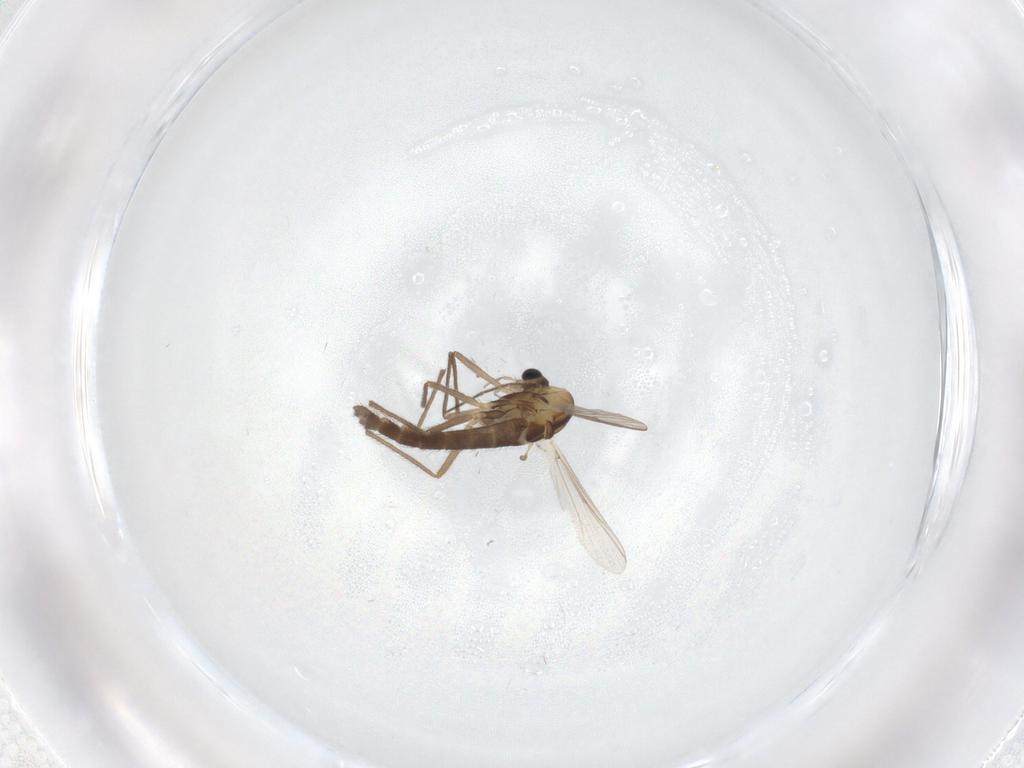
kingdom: Animalia
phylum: Arthropoda
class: Insecta
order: Diptera
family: Chironomidae
